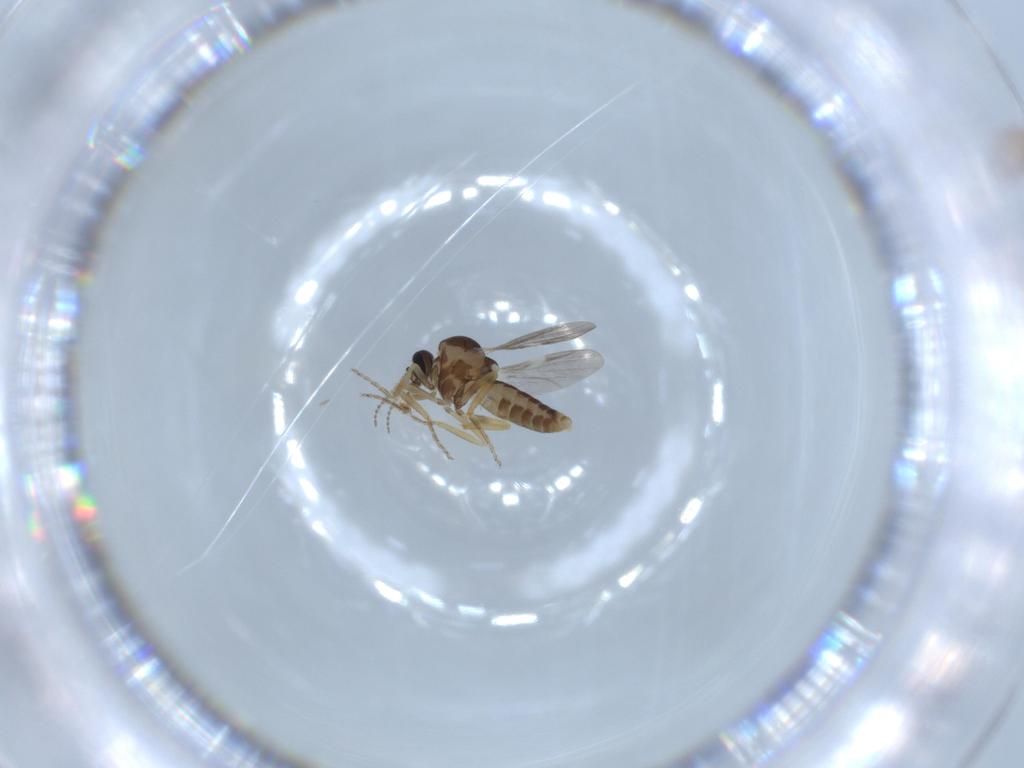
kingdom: Animalia
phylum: Arthropoda
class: Insecta
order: Diptera
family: Ceratopogonidae
